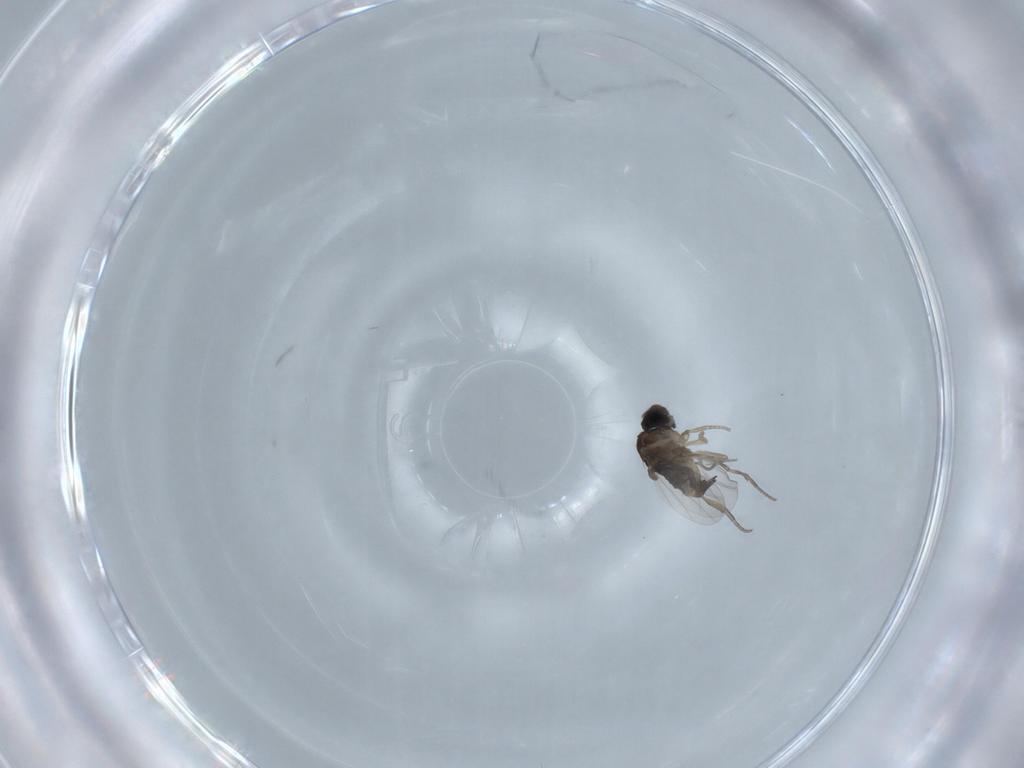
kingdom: Animalia
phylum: Arthropoda
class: Insecta
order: Diptera
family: Phoridae
